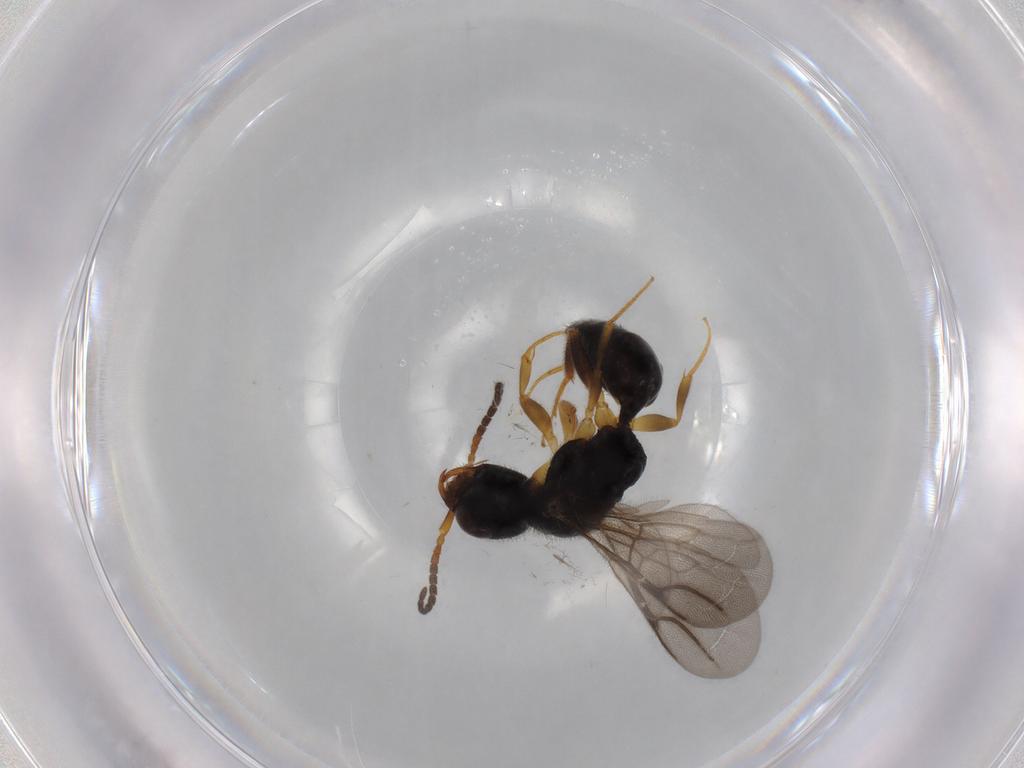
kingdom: Animalia
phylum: Arthropoda
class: Insecta
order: Hymenoptera
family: Bethylidae
